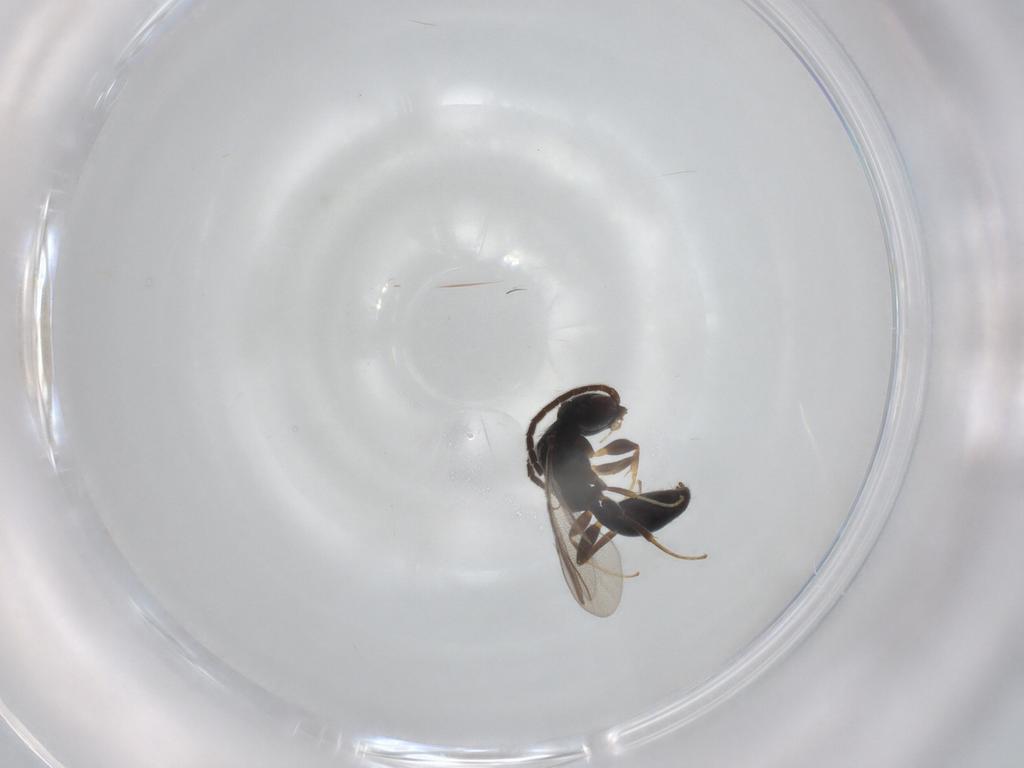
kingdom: Animalia
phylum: Arthropoda
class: Insecta
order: Hymenoptera
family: Bethylidae
